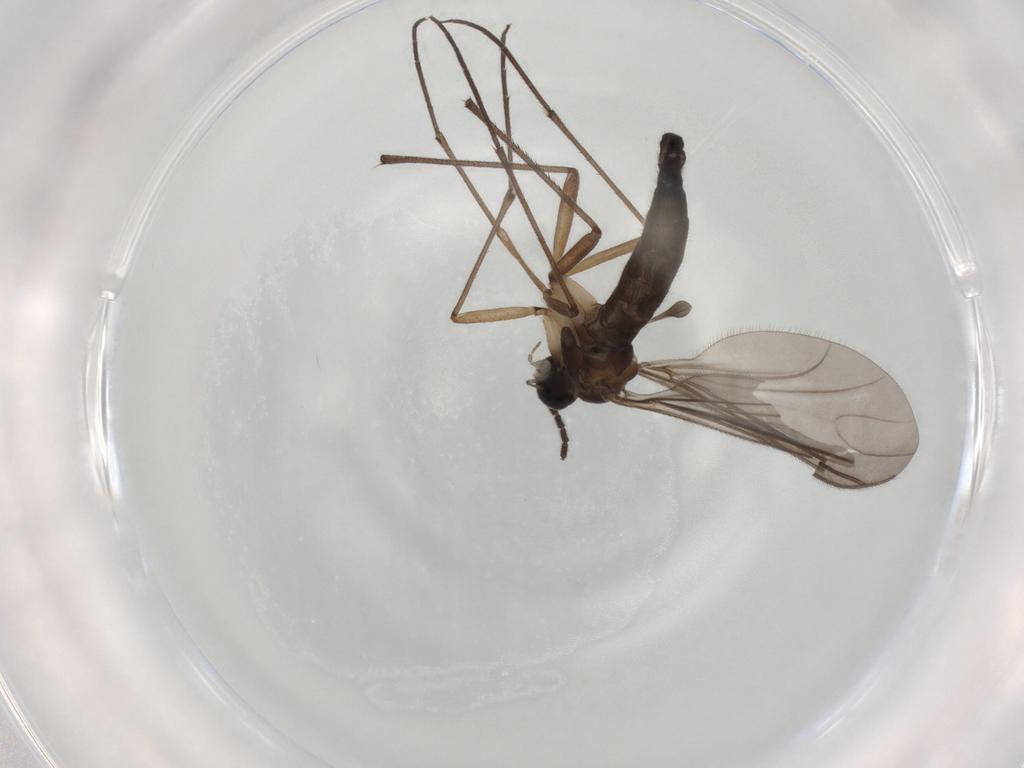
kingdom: Animalia
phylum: Arthropoda
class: Insecta
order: Diptera
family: Sciaridae
